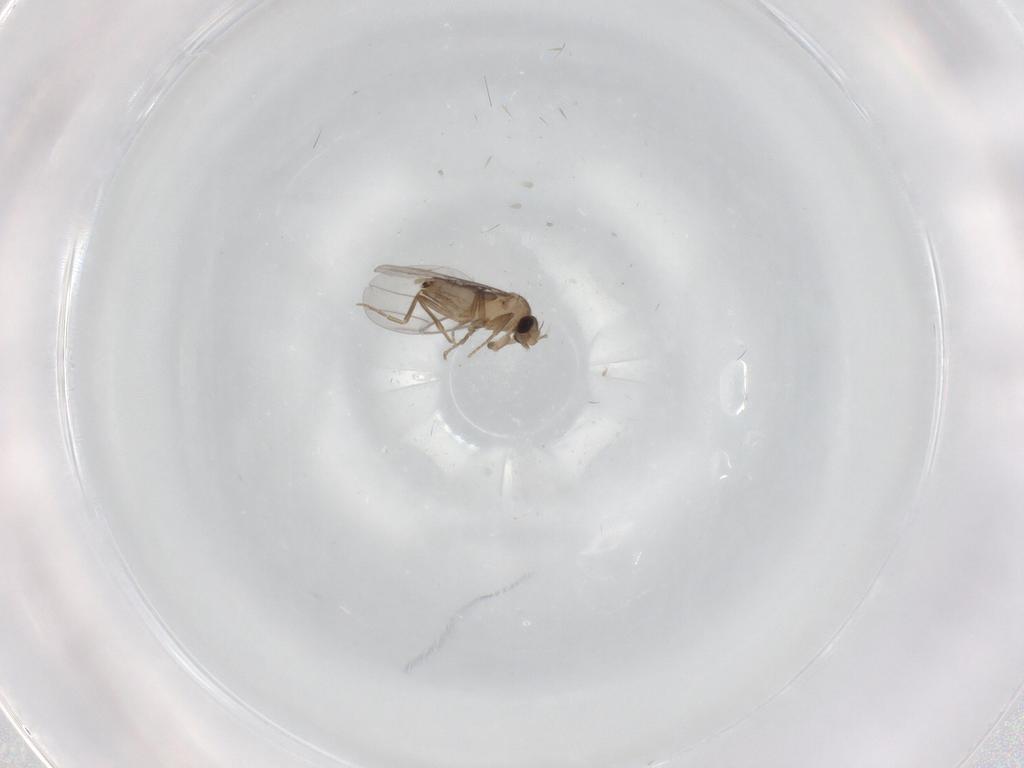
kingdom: Animalia
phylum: Arthropoda
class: Insecta
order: Diptera
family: Cecidomyiidae
